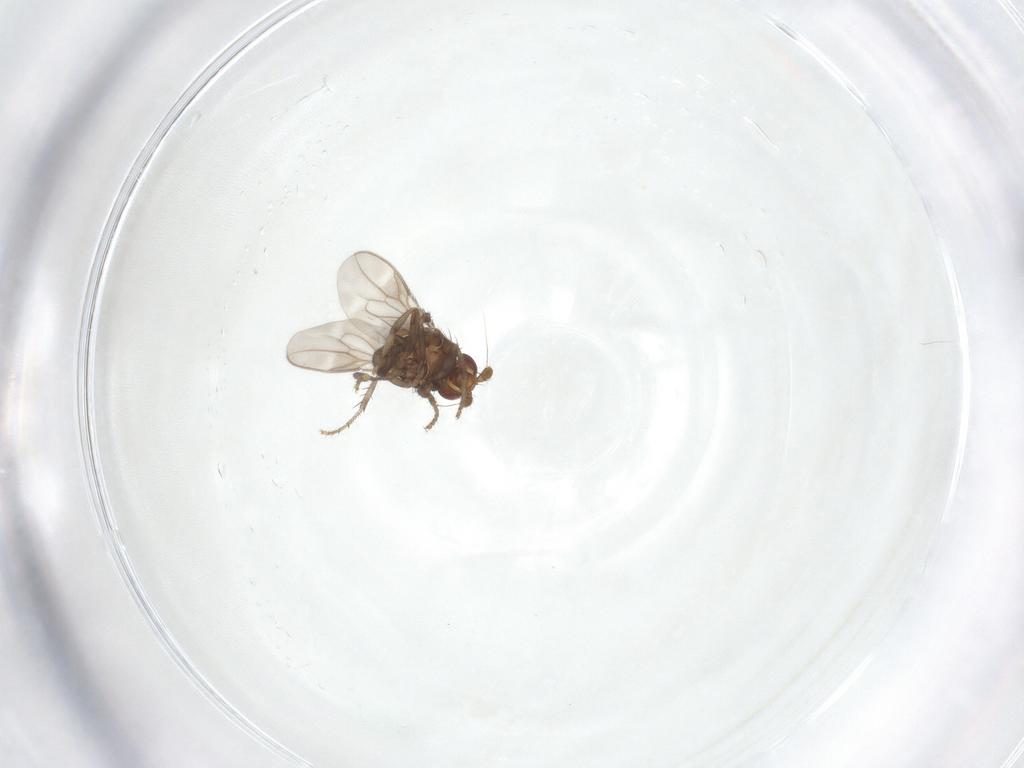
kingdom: Animalia
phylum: Arthropoda
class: Insecta
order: Diptera
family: Sphaeroceridae
